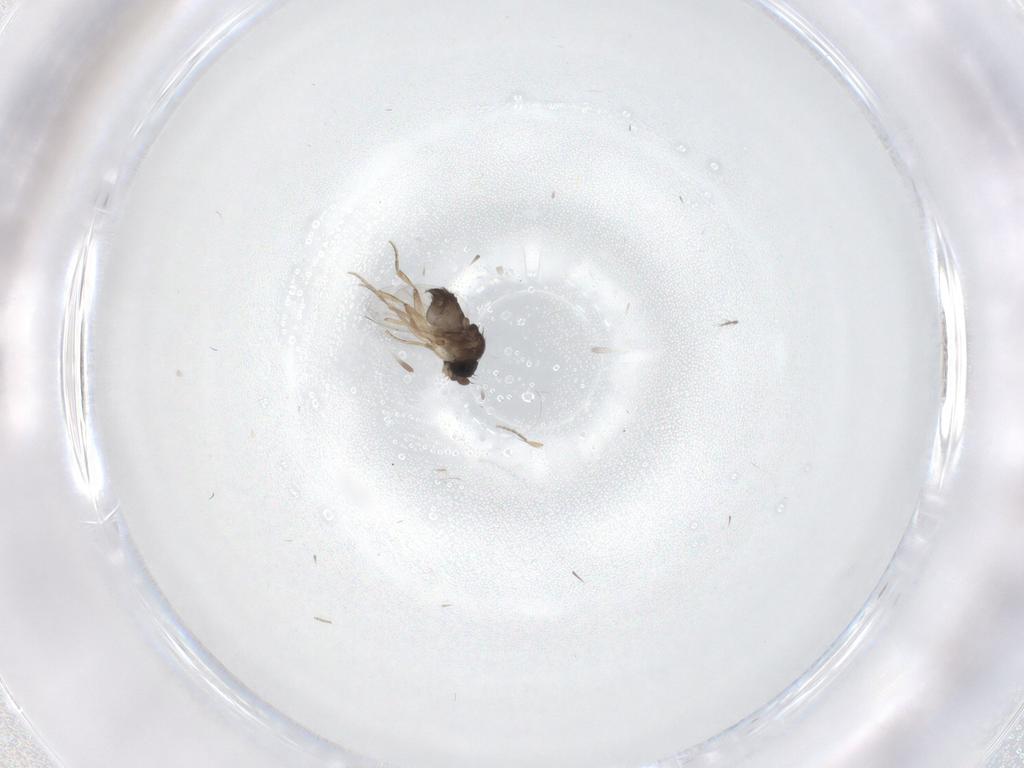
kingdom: Animalia
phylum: Arthropoda
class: Insecta
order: Diptera
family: Phoridae
